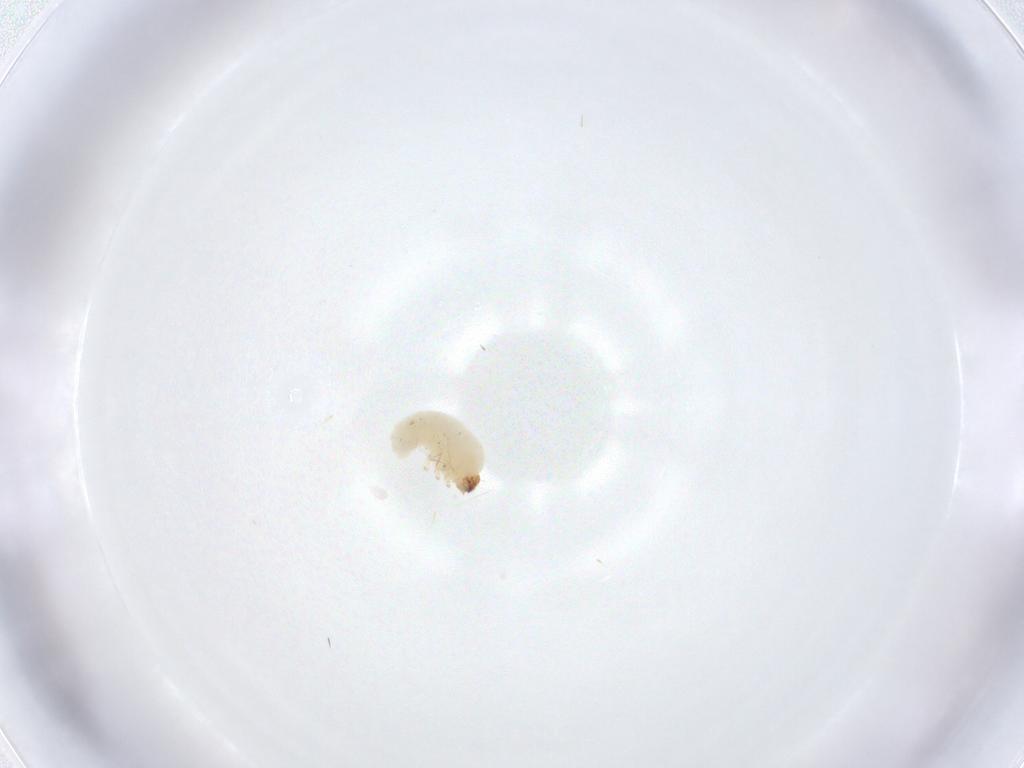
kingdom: Animalia
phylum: Arthropoda
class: Insecta
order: Coleoptera
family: Bostrichidae
